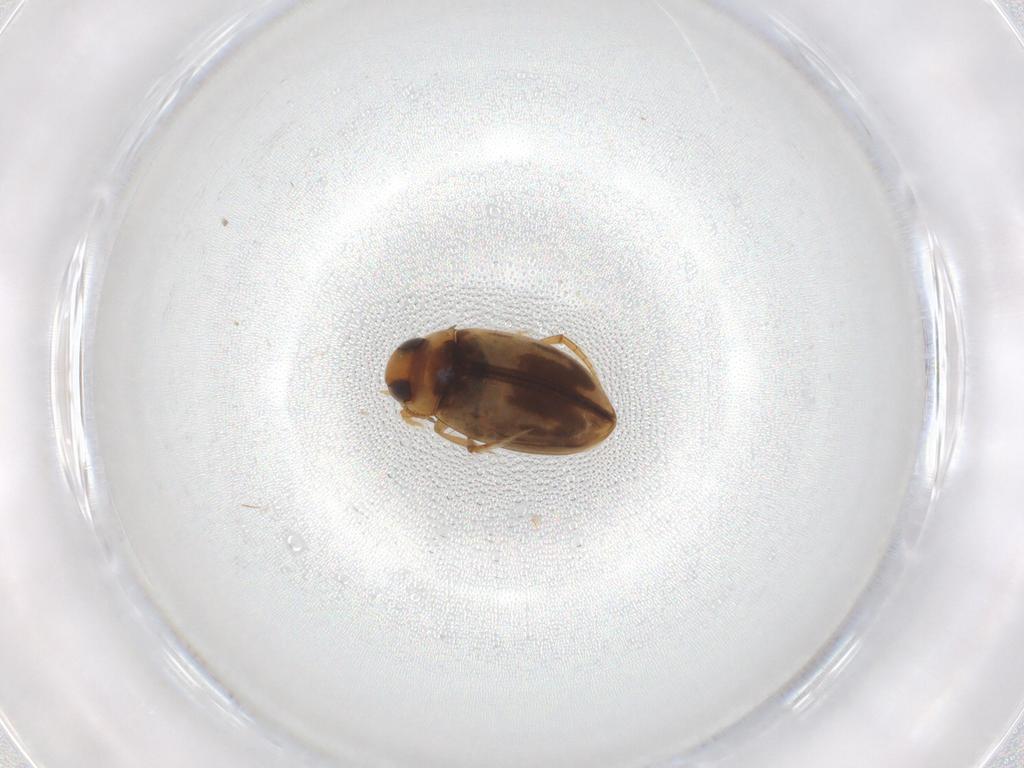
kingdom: Animalia
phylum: Arthropoda
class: Insecta
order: Coleoptera
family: Dytiscidae
